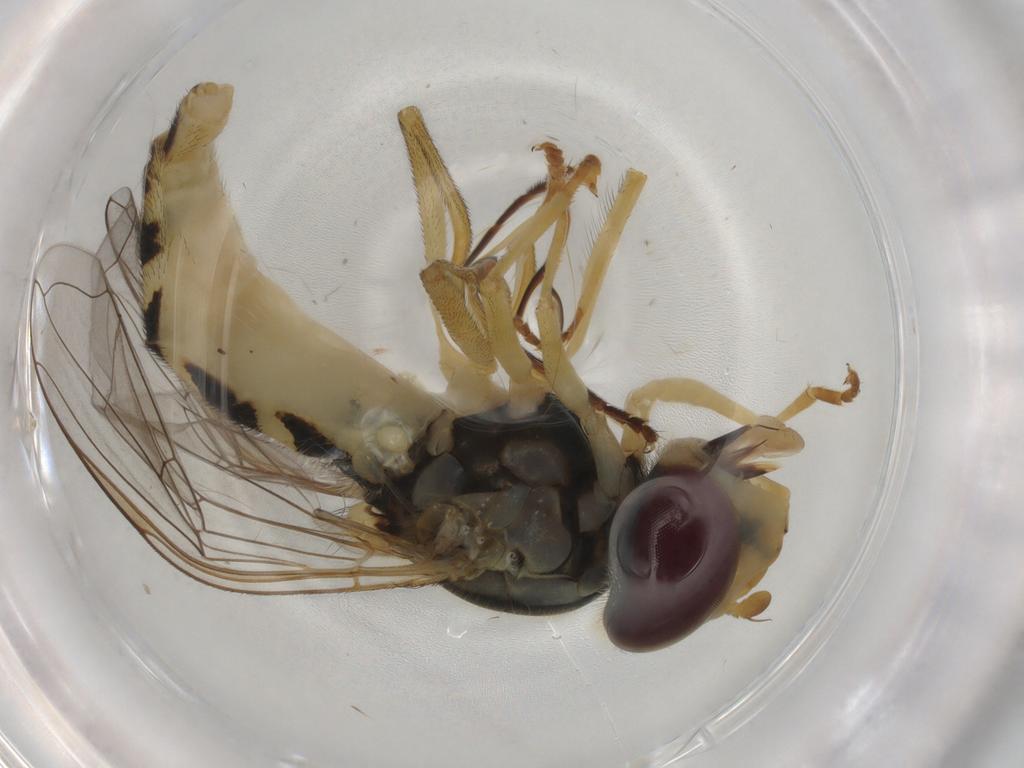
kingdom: Animalia
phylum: Arthropoda
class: Insecta
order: Diptera
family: Syrphidae
